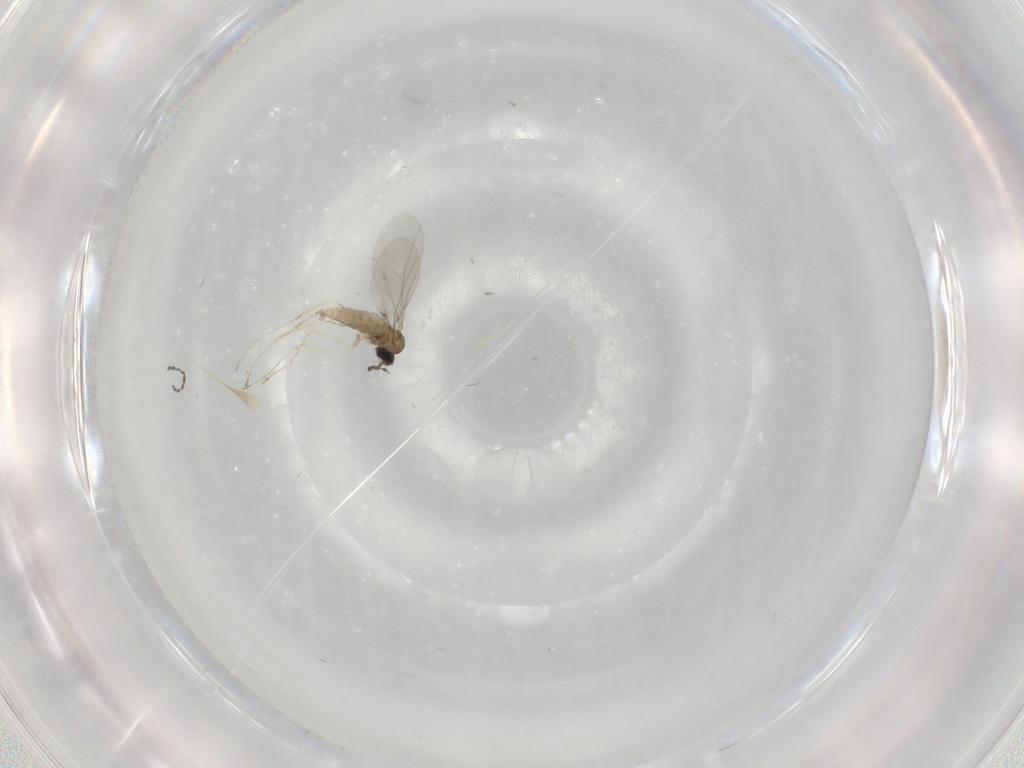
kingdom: Animalia
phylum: Arthropoda
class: Insecta
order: Diptera
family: Cecidomyiidae
